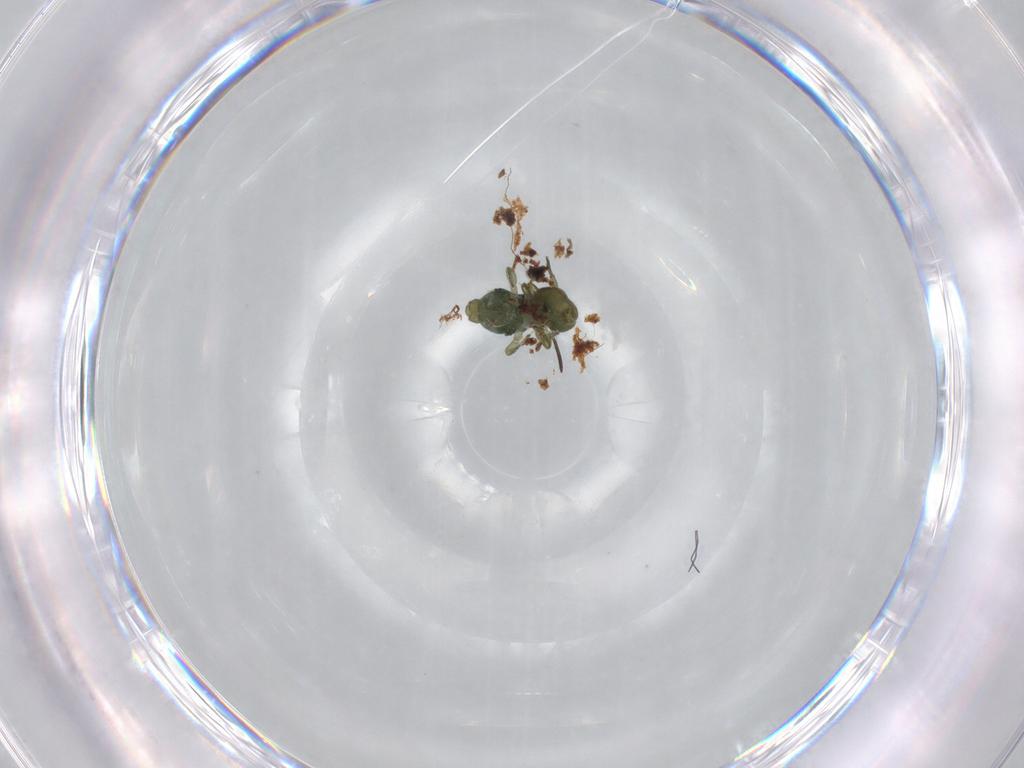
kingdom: Animalia
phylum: Arthropoda
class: Collembola
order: Symphypleona
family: Sminthuridae
